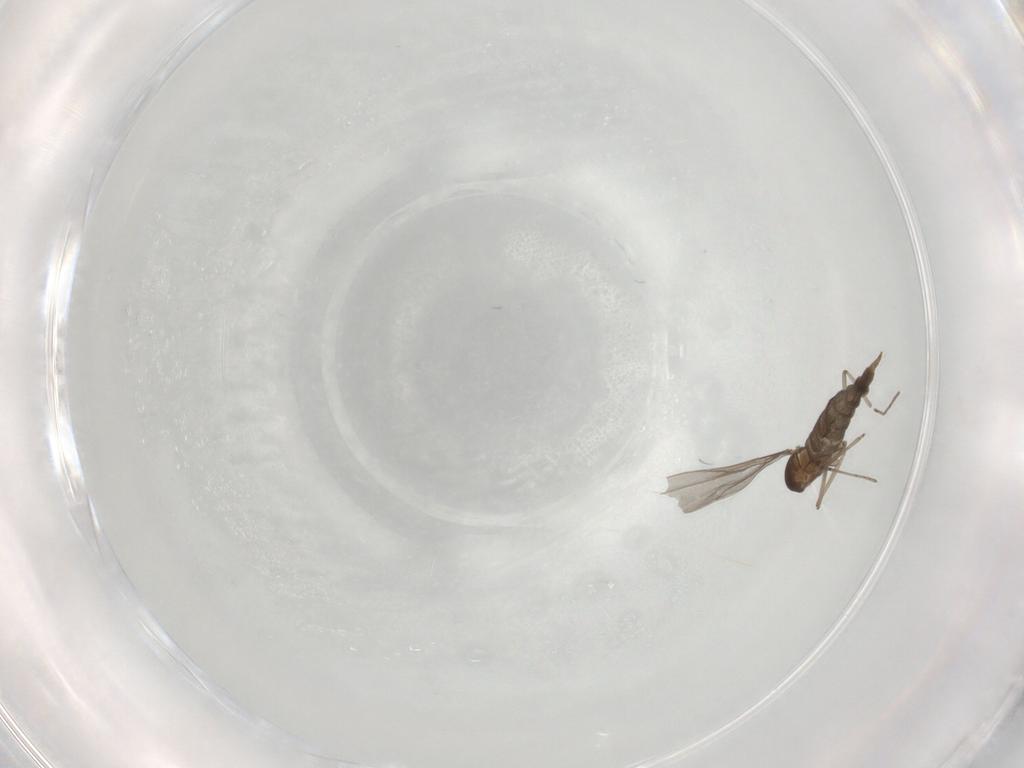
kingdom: Animalia
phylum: Arthropoda
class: Insecta
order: Diptera
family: Cecidomyiidae
